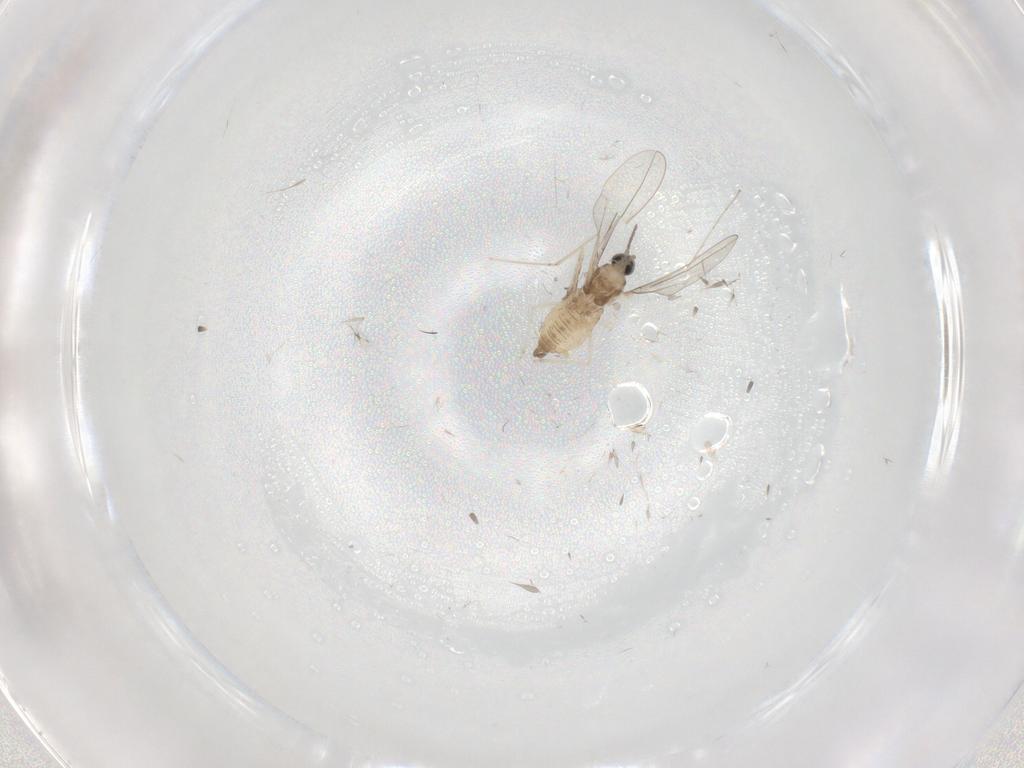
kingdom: Animalia
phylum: Arthropoda
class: Insecta
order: Diptera
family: Cecidomyiidae
